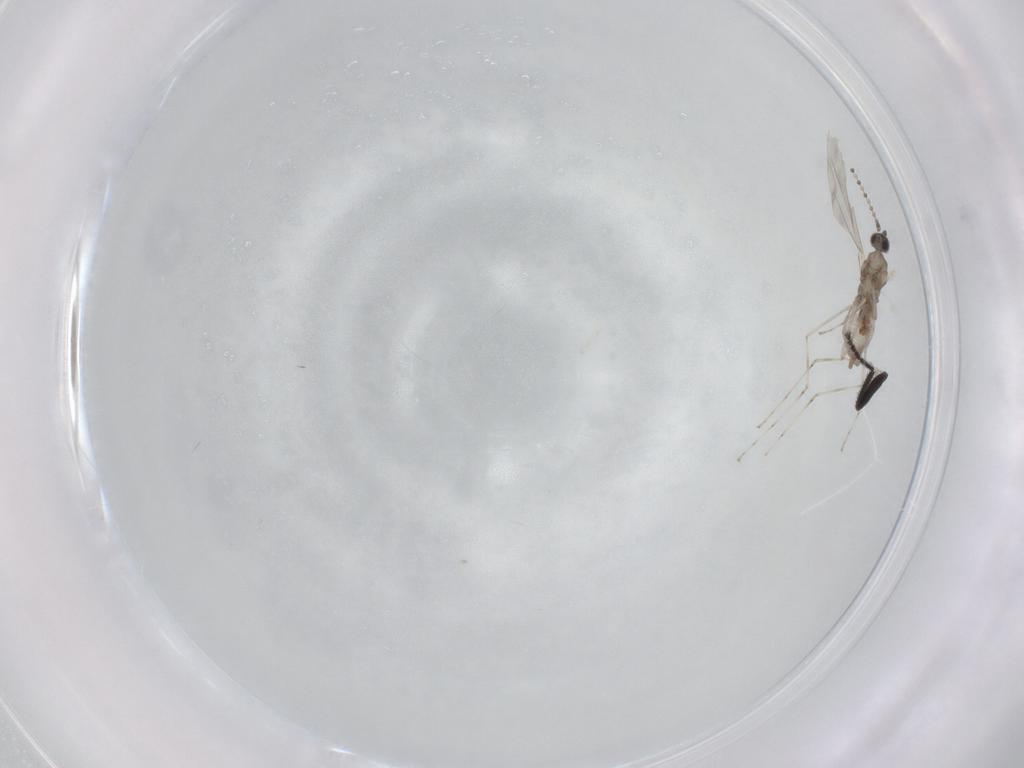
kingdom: Animalia
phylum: Arthropoda
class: Insecta
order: Diptera
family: Cecidomyiidae
